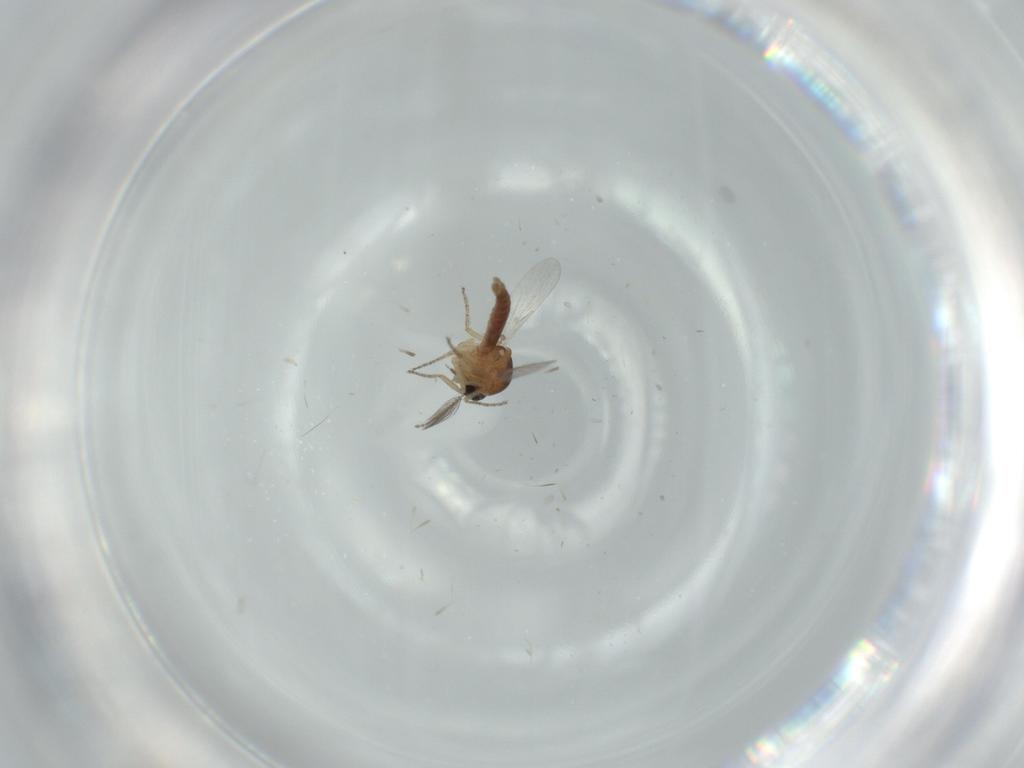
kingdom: Animalia
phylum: Arthropoda
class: Insecta
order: Diptera
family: Ceratopogonidae
